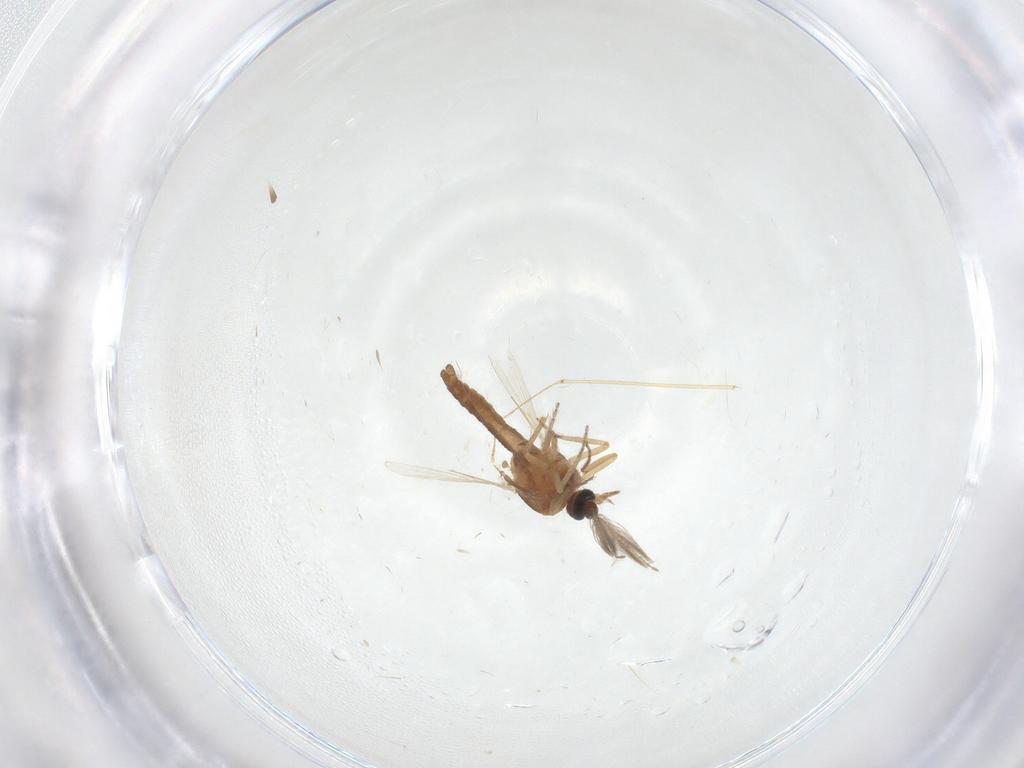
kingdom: Animalia
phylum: Arthropoda
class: Insecta
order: Diptera
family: Ceratopogonidae
